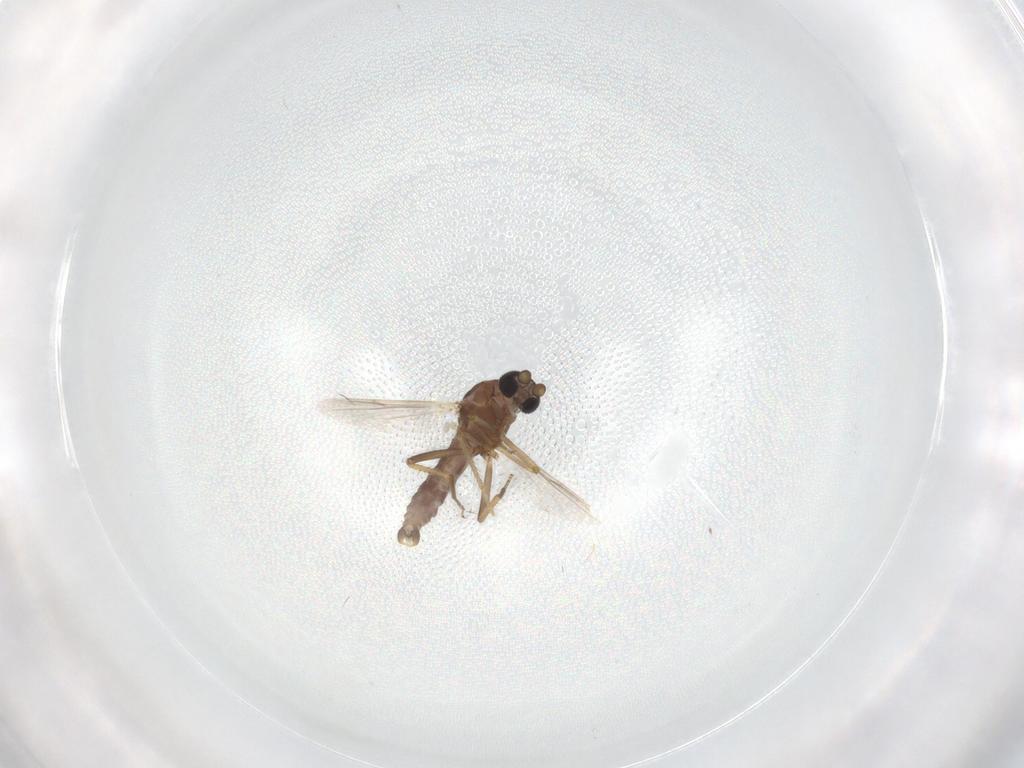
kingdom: Animalia
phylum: Arthropoda
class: Insecta
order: Diptera
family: Ceratopogonidae
